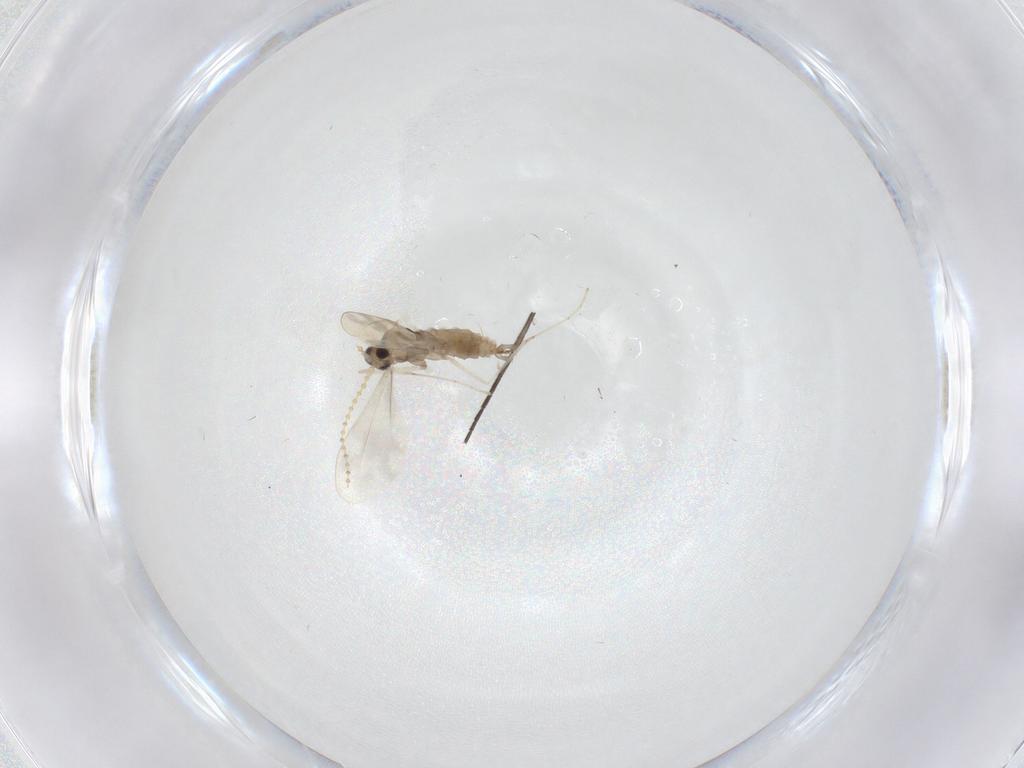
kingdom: Animalia
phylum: Arthropoda
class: Insecta
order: Diptera
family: Cecidomyiidae
